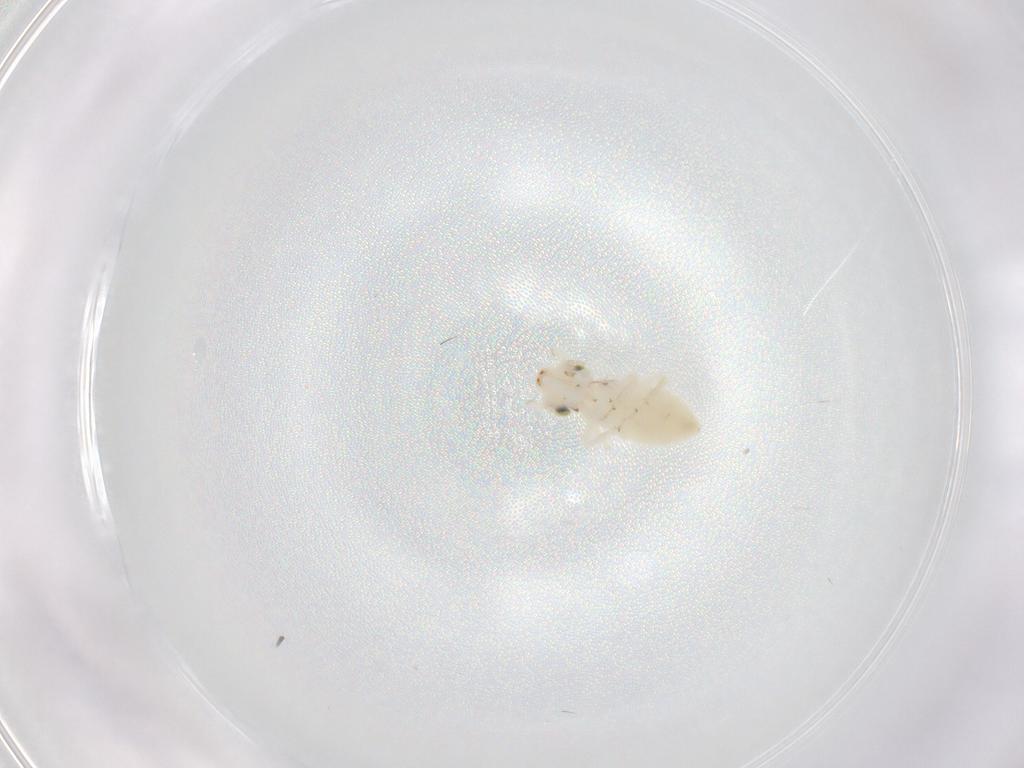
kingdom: Animalia
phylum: Arthropoda
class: Insecta
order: Psocodea
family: Lepidopsocidae
